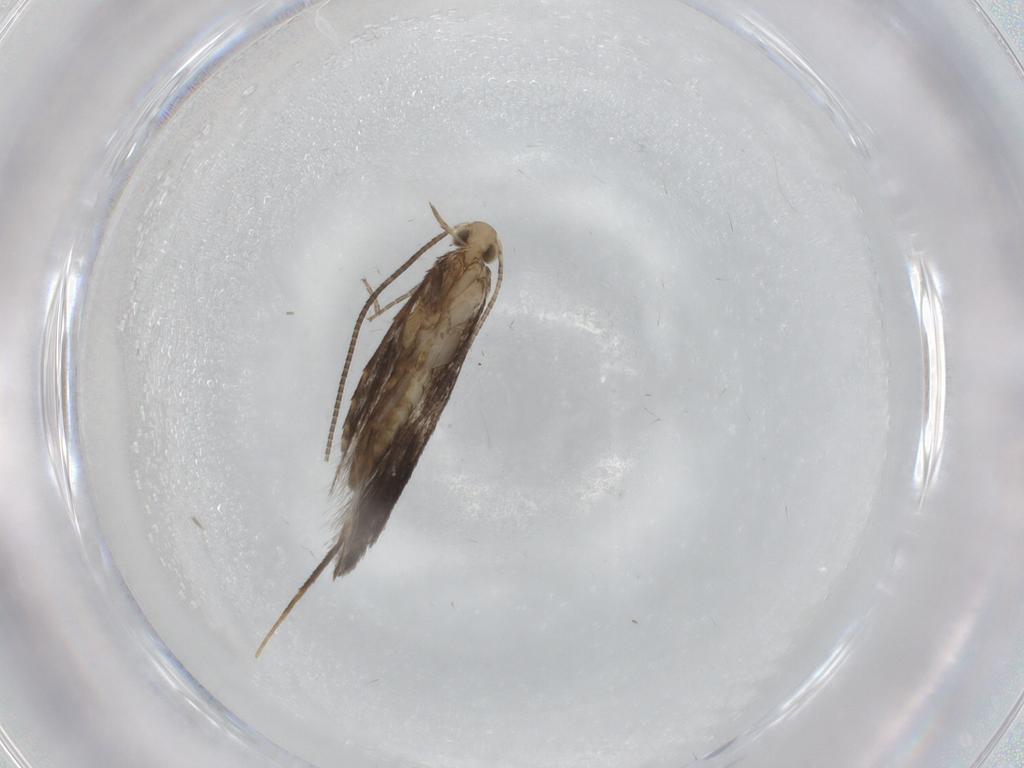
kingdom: Animalia
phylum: Arthropoda
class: Insecta
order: Lepidoptera
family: Gracillariidae
